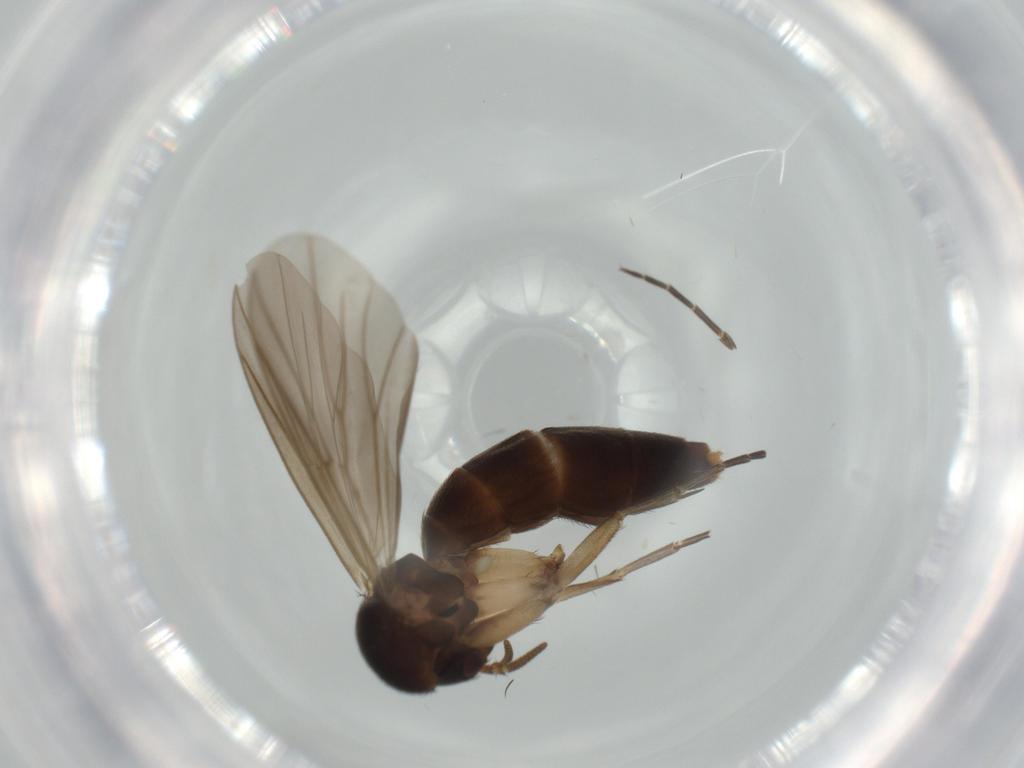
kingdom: Animalia
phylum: Arthropoda
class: Insecta
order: Diptera
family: Mycetophilidae
